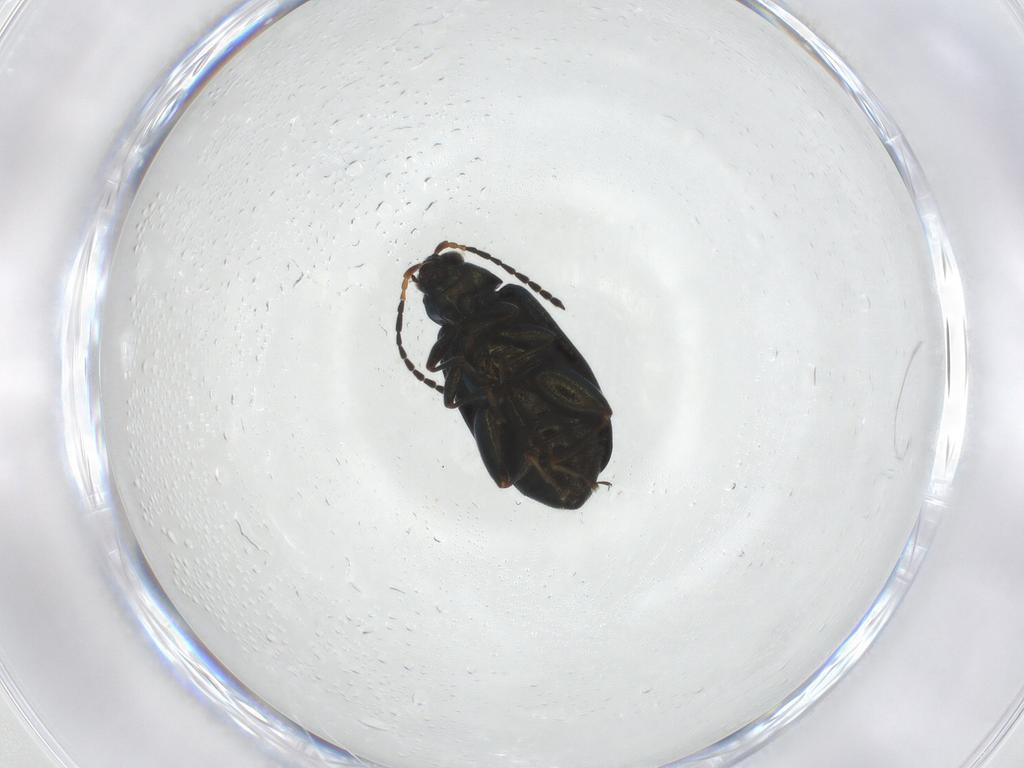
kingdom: Animalia
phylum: Arthropoda
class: Insecta
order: Coleoptera
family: Chrysomelidae
